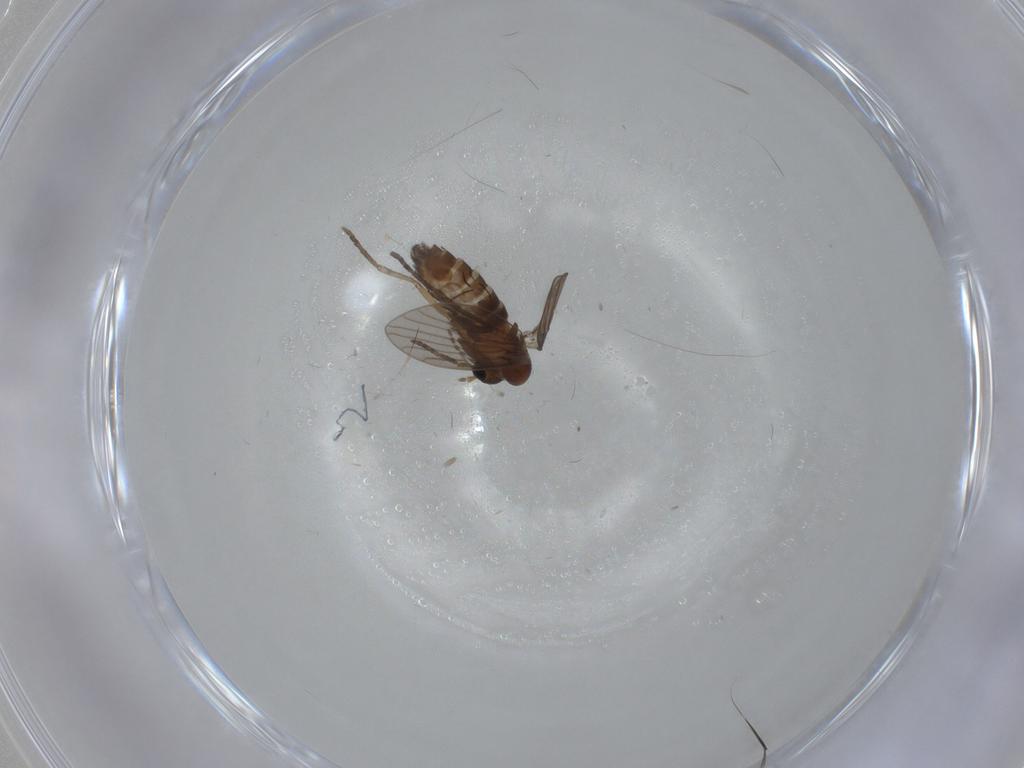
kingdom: Animalia
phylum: Arthropoda
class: Insecta
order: Diptera
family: Psychodidae
